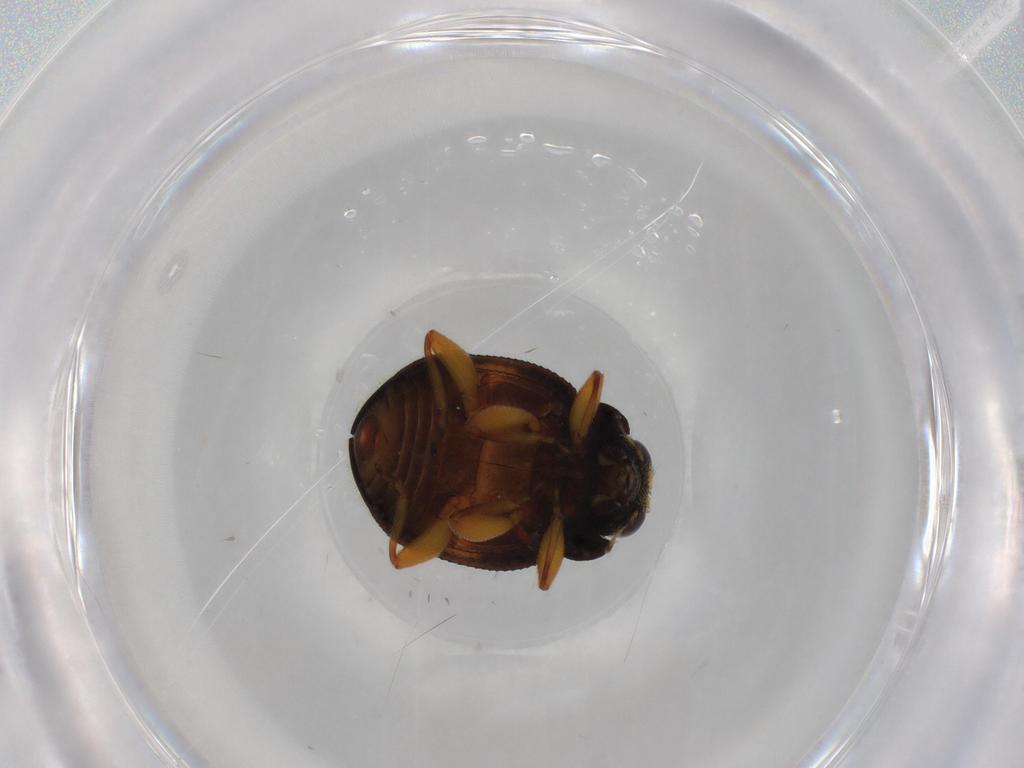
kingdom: Animalia
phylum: Arthropoda
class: Insecta
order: Coleoptera
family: Coccinellidae
